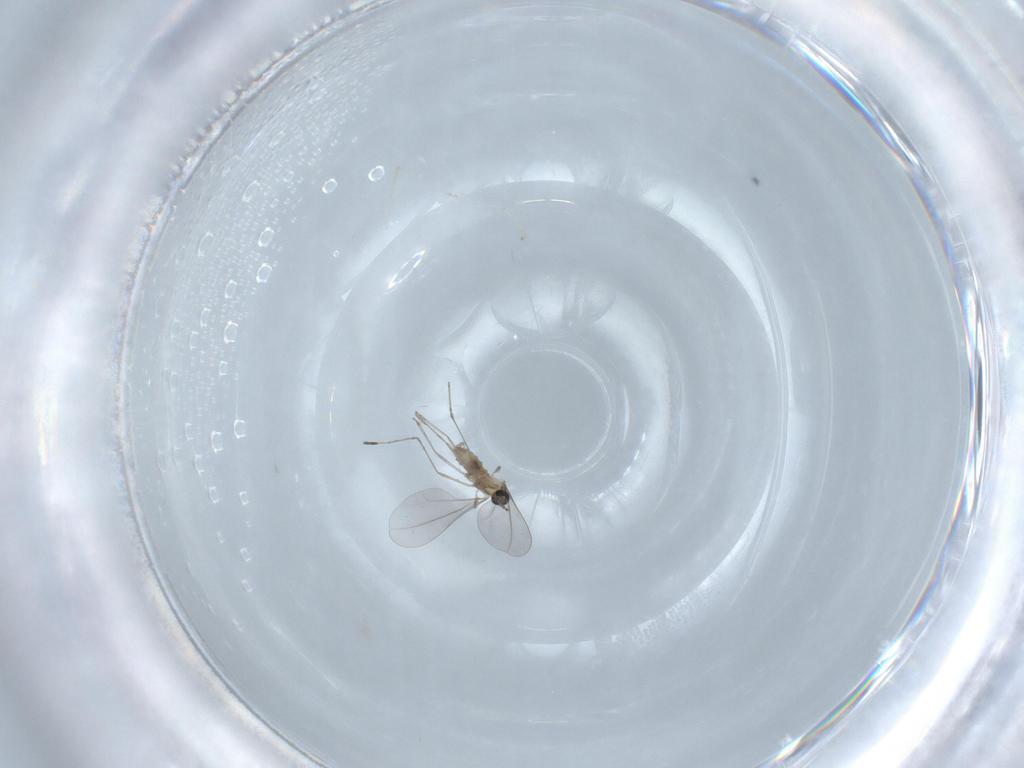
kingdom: Animalia
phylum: Arthropoda
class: Insecta
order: Diptera
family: Cecidomyiidae
